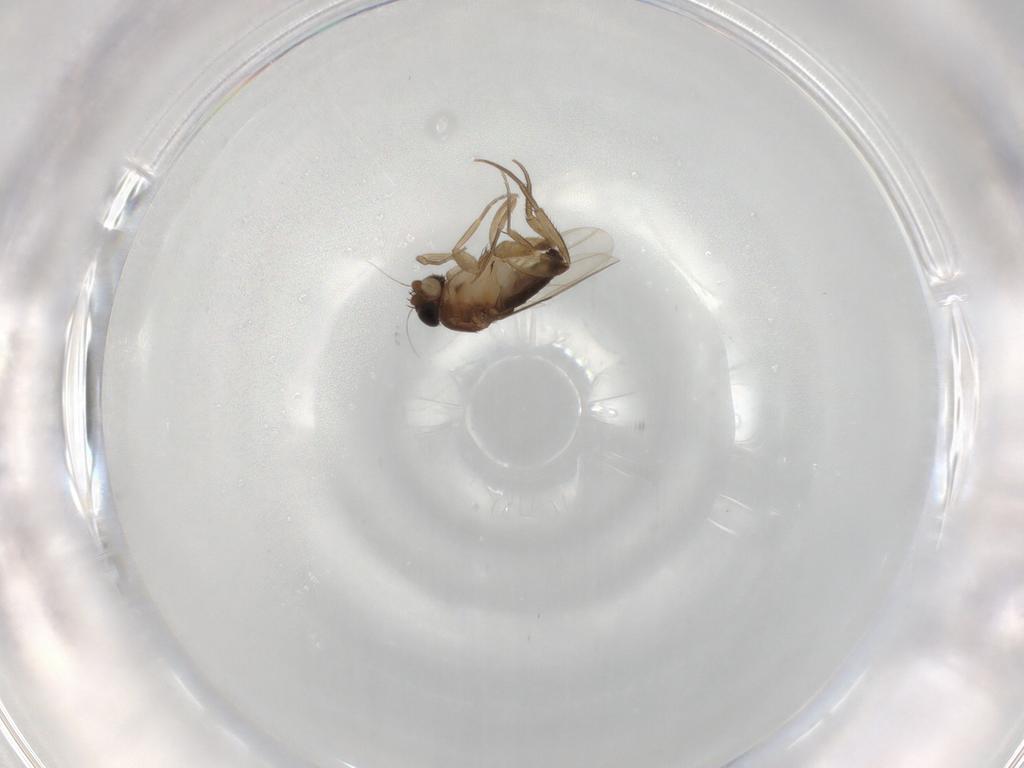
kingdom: Animalia
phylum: Arthropoda
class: Insecta
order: Diptera
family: Phoridae
